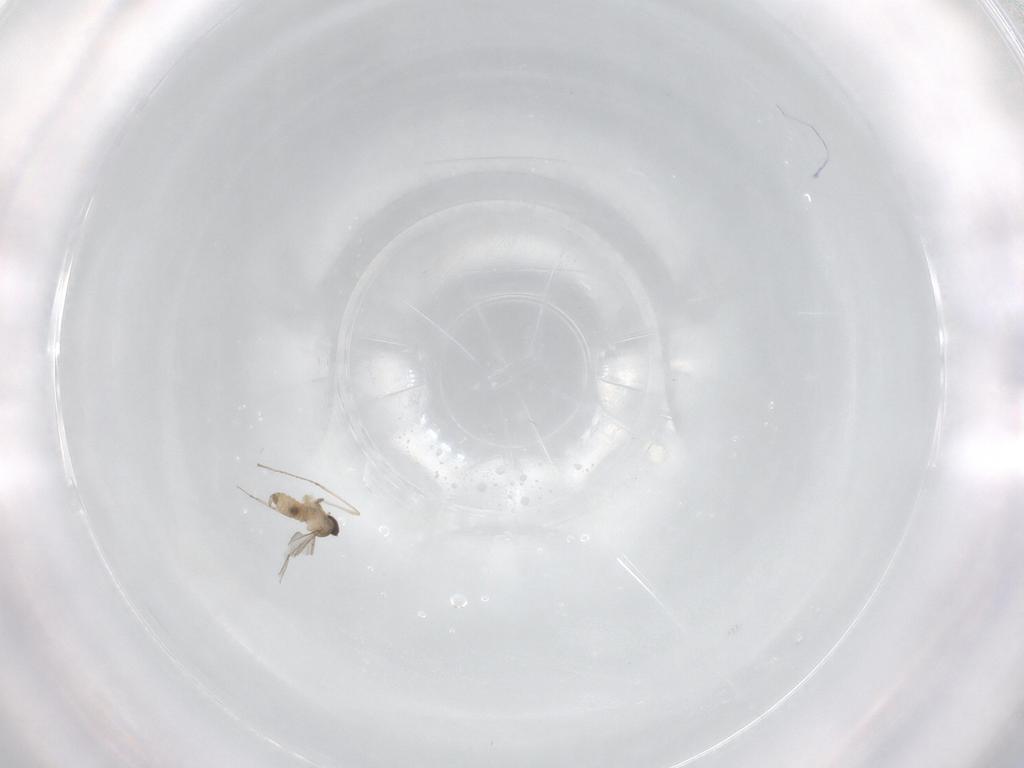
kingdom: Animalia
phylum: Arthropoda
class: Insecta
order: Diptera
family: Phoridae
